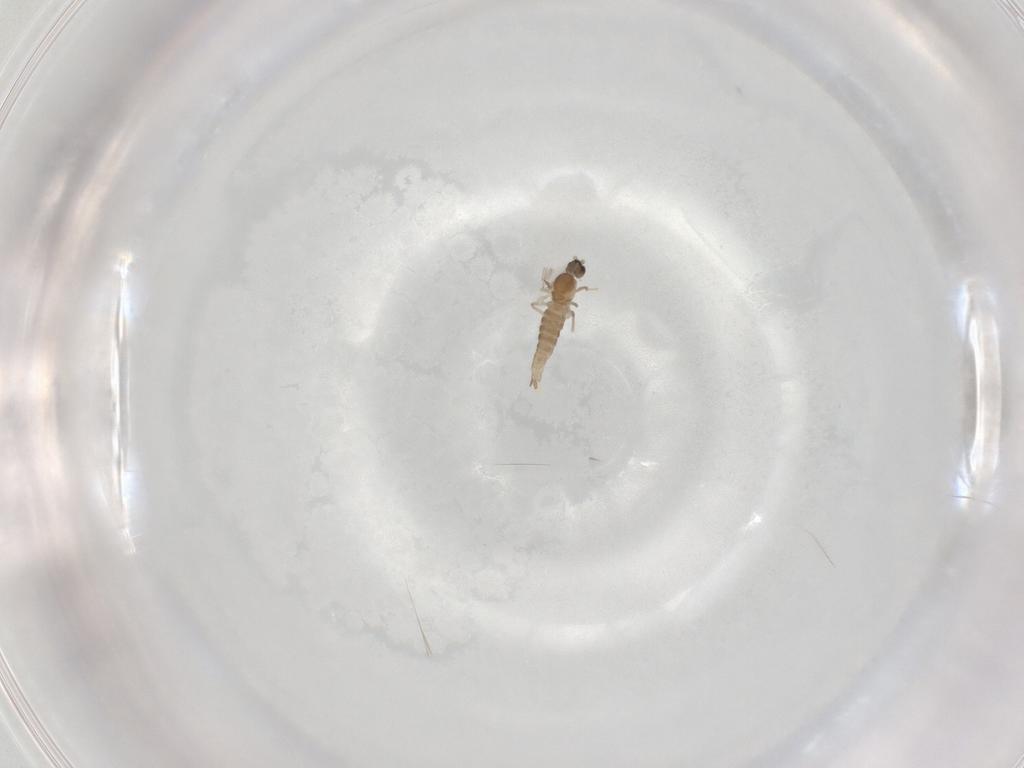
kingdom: Animalia
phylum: Arthropoda
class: Insecta
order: Diptera
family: Cecidomyiidae
